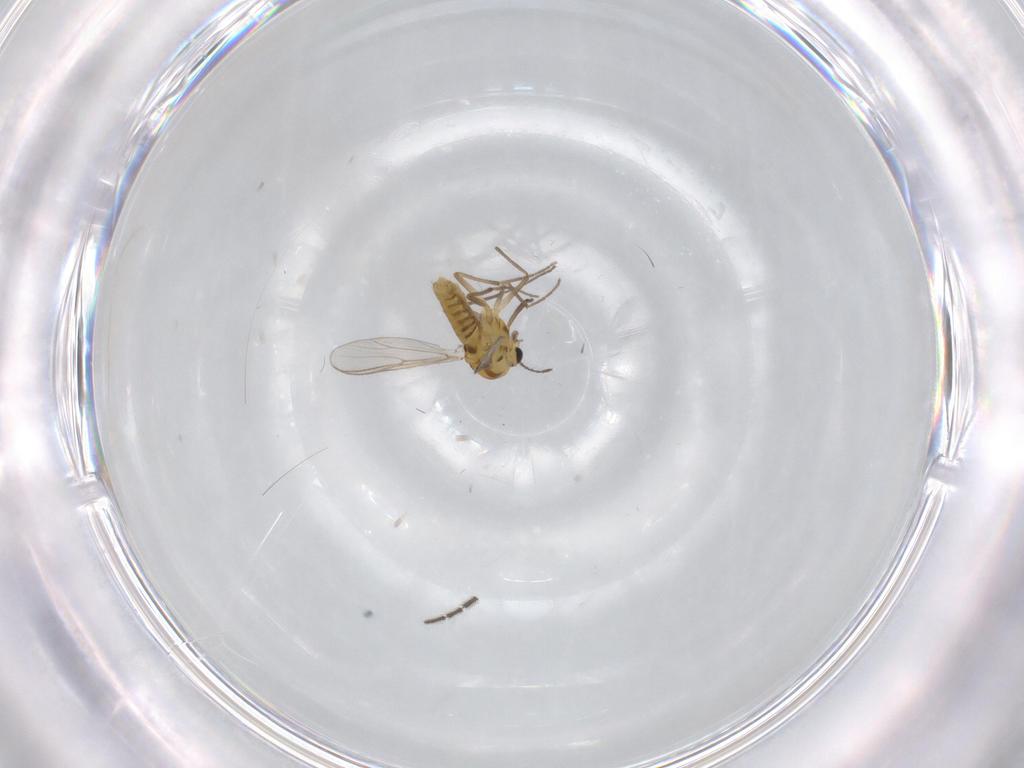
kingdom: Animalia
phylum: Arthropoda
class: Insecta
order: Diptera
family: Chironomidae
